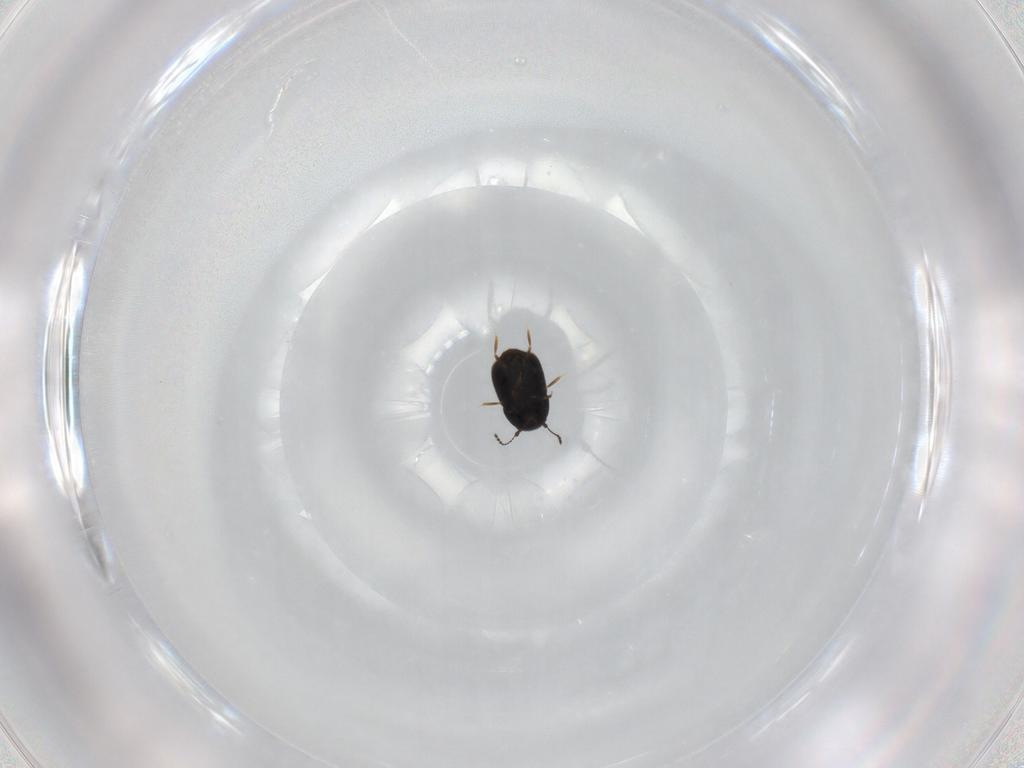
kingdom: Animalia
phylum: Arthropoda
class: Insecta
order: Coleoptera
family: Ptiliidae
